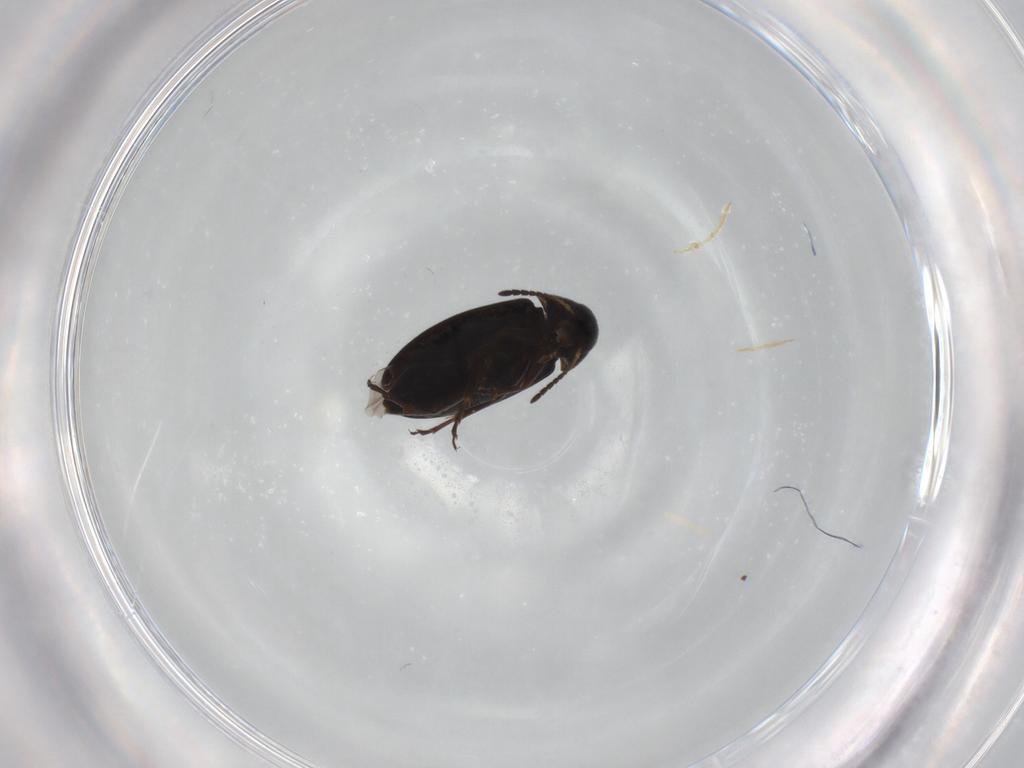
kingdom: Animalia
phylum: Arthropoda
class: Insecta
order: Coleoptera
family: Scraptiidae
